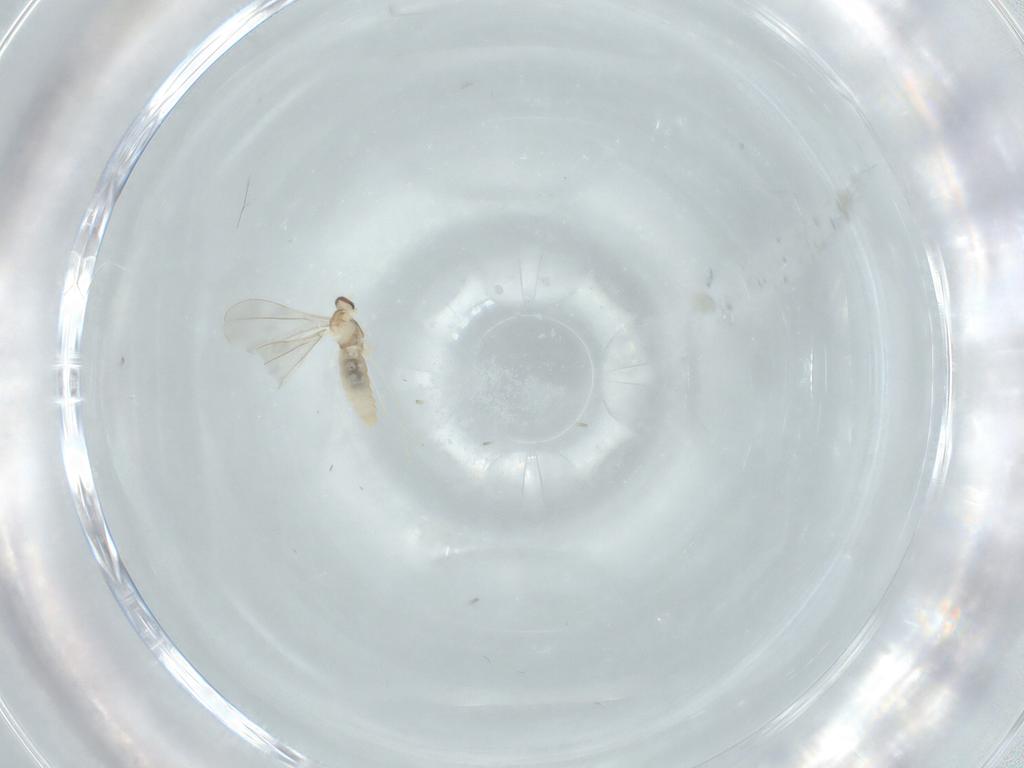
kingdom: Animalia
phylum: Arthropoda
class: Insecta
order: Diptera
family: Cecidomyiidae
